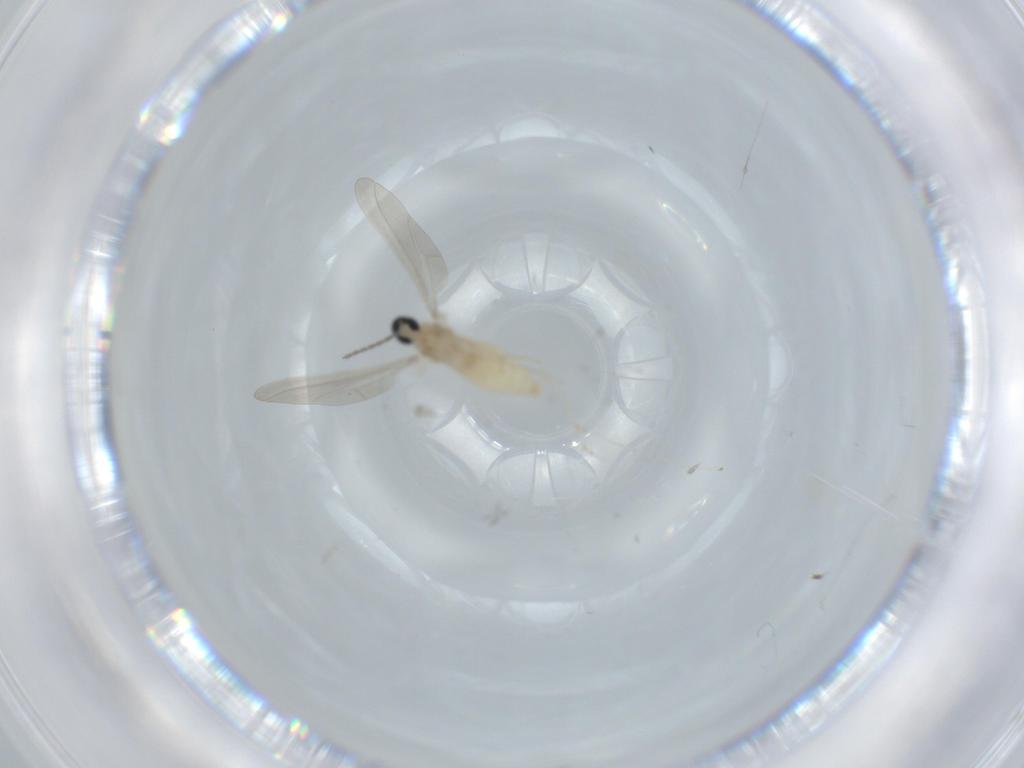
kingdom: Animalia
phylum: Arthropoda
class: Insecta
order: Diptera
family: Cecidomyiidae
